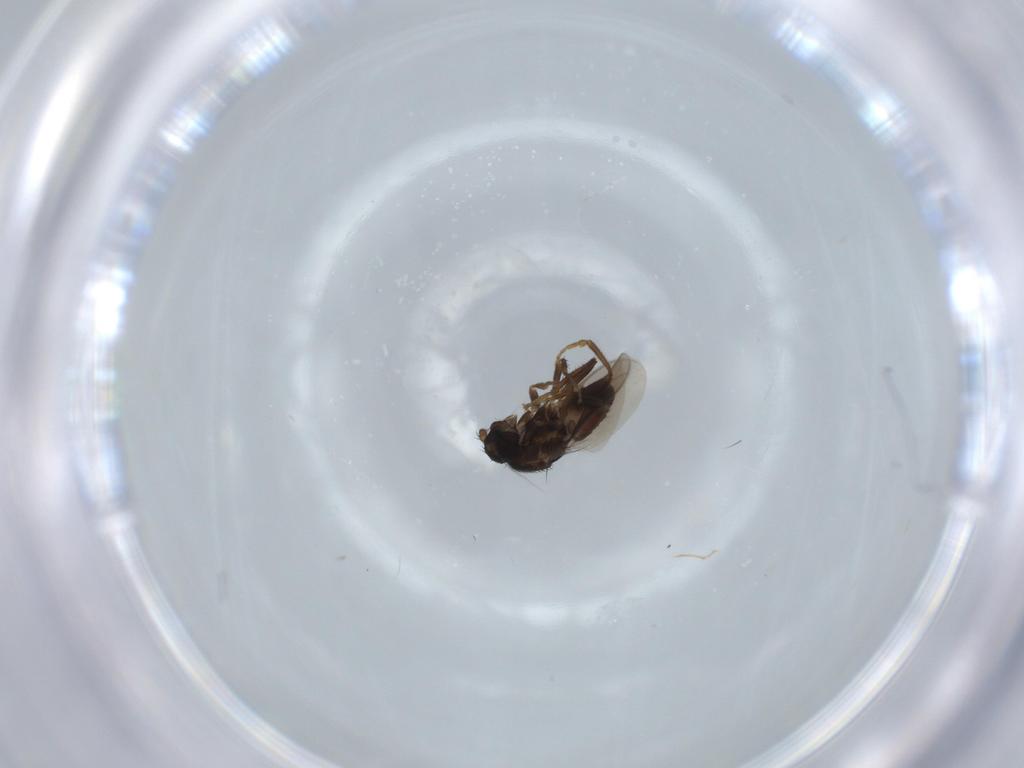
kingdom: Animalia
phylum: Arthropoda
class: Insecta
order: Diptera
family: Sphaeroceridae
